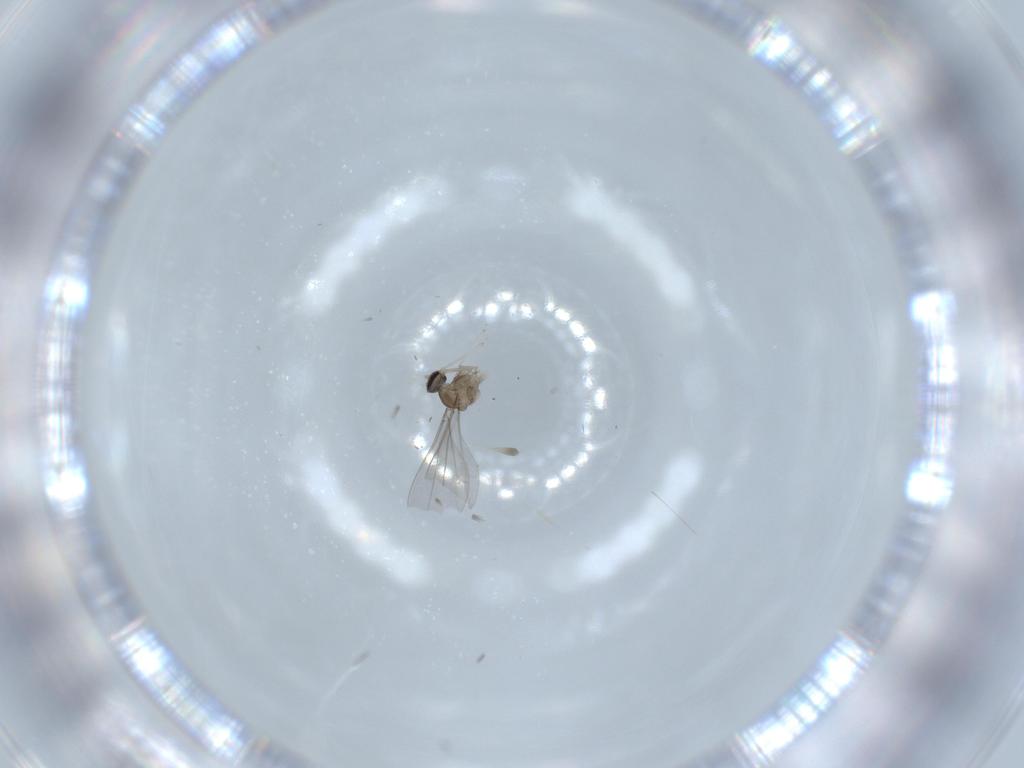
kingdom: Animalia
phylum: Arthropoda
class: Insecta
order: Diptera
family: Cecidomyiidae
